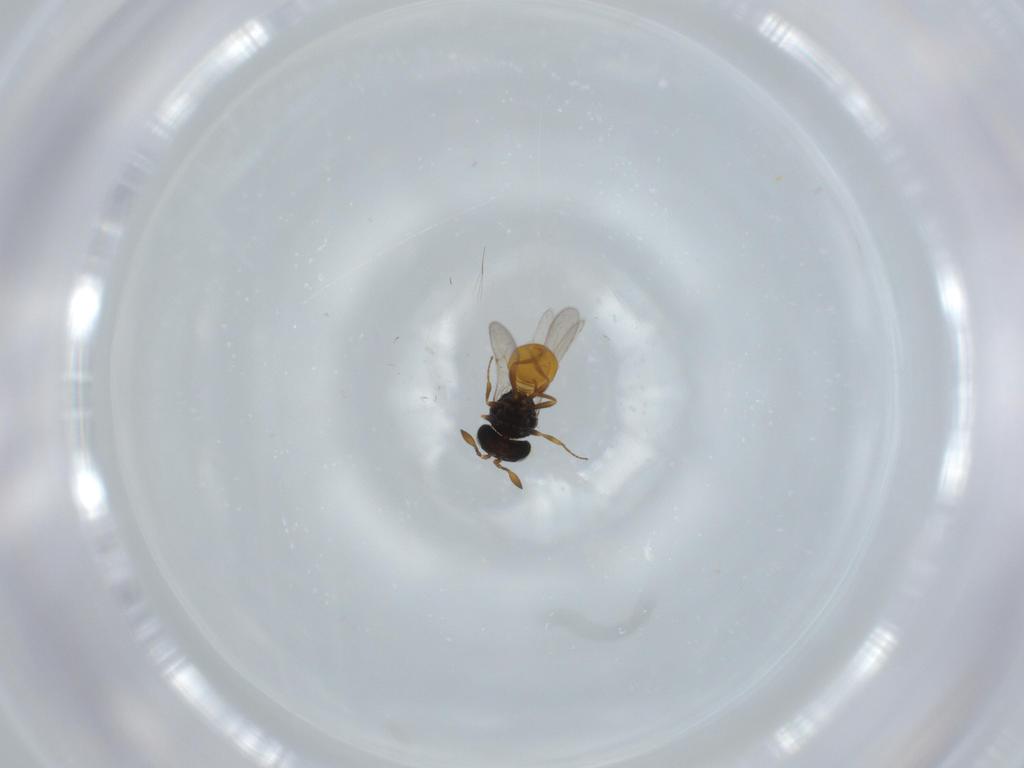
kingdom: Animalia
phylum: Arthropoda
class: Insecta
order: Hymenoptera
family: Scelionidae
